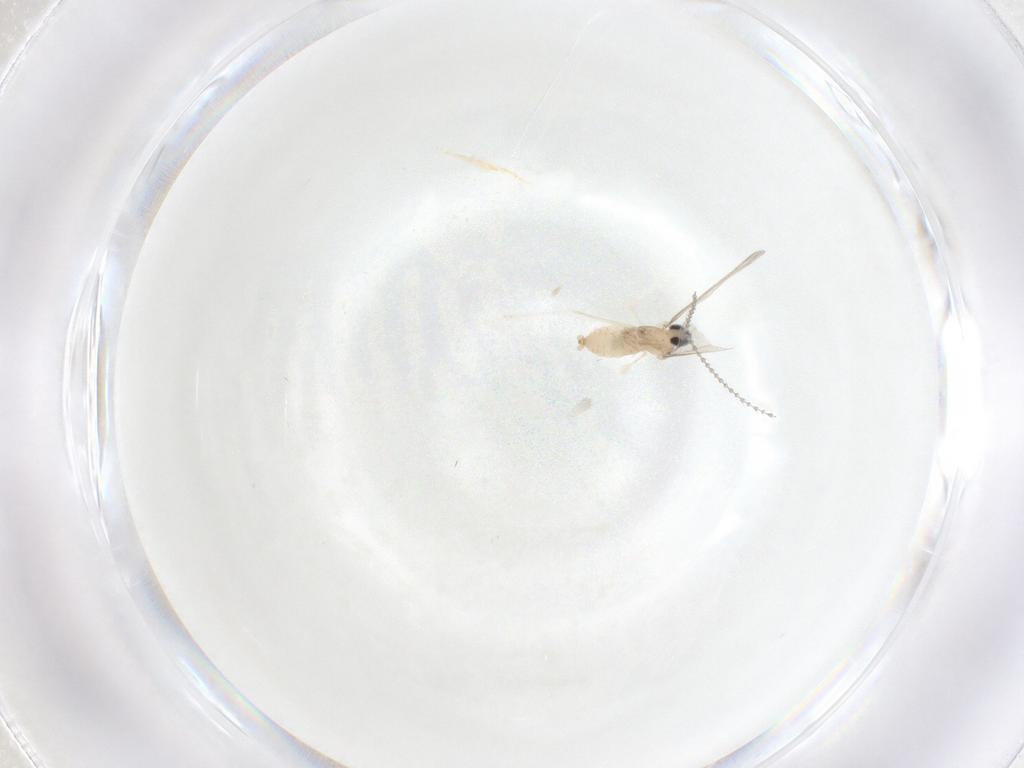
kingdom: Animalia
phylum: Arthropoda
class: Insecta
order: Diptera
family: Cecidomyiidae
